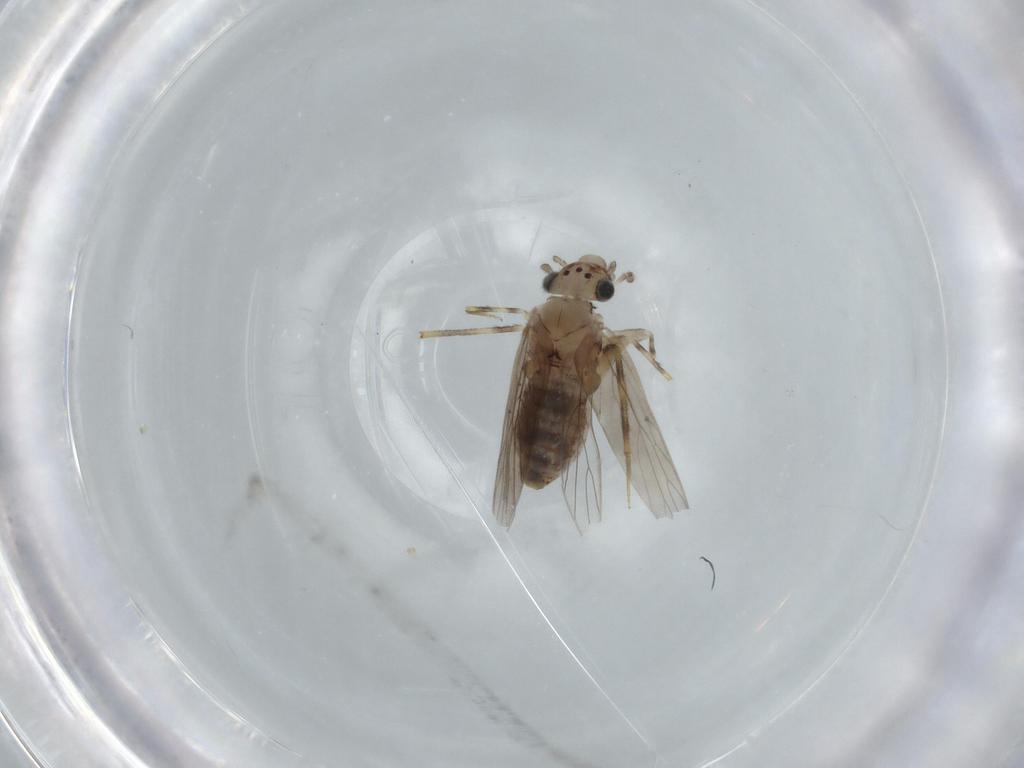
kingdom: Animalia
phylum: Arthropoda
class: Insecta
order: Psocodea
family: Lepidopsocidae
